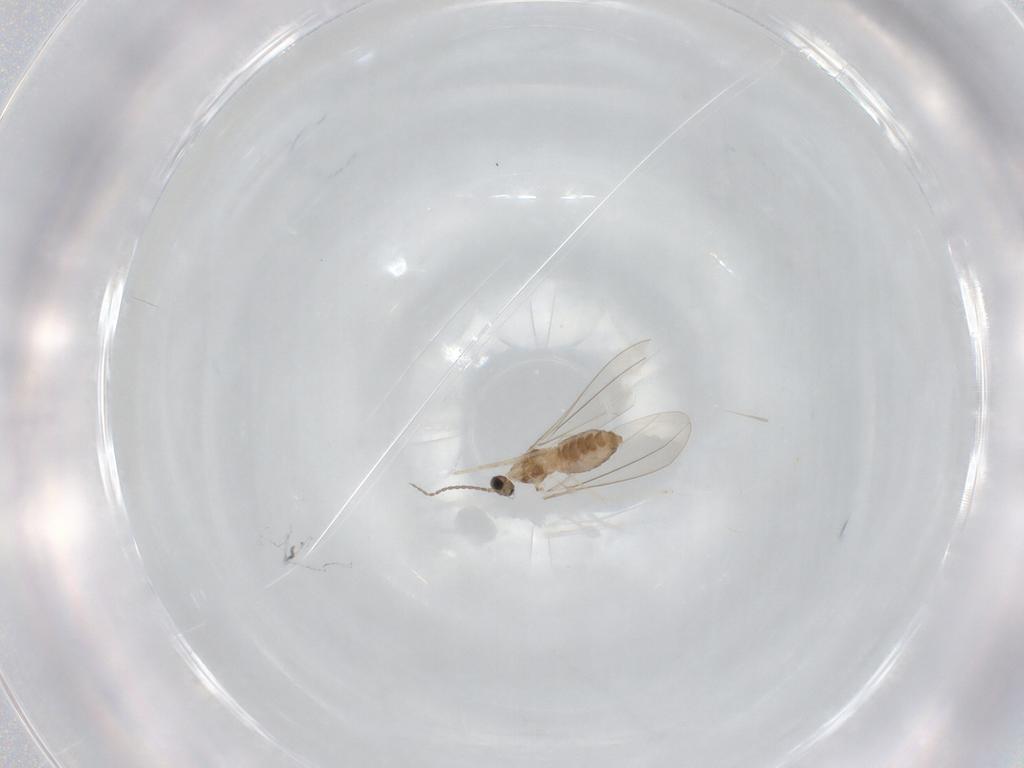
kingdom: Animalia
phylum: Arthropoda
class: Insecta
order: Diptera
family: Cecidomyiidae
